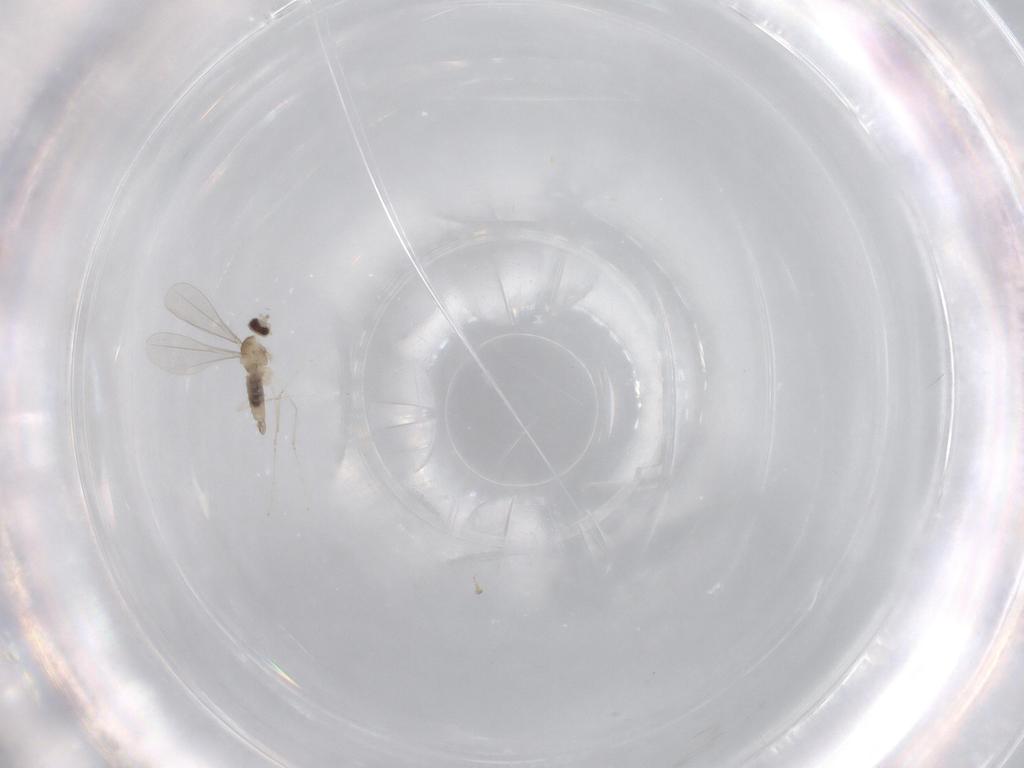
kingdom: Animalia
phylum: Arthropoda
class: Insecta
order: Diptera
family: Cecidomyiidae
